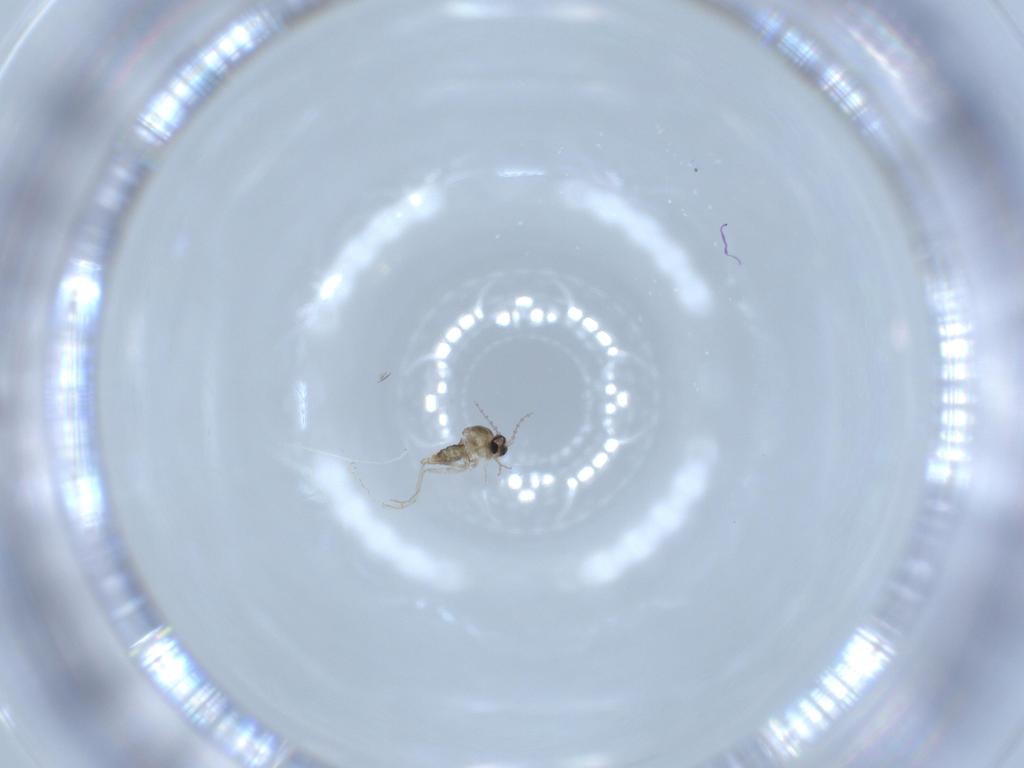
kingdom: Animalia
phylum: Arthropoda
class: Insecta
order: Diptera
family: Cecidomyiidae
